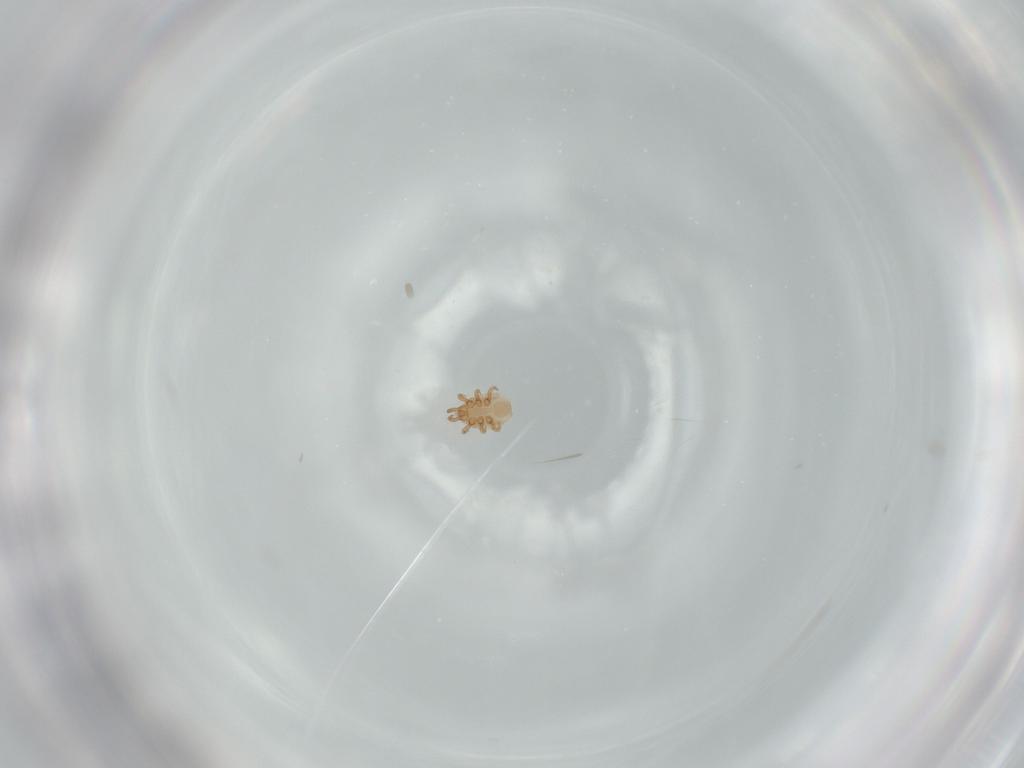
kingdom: Animalia
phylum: Arthropoda
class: Arachnida
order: Mesostigmata
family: Dinychidae
